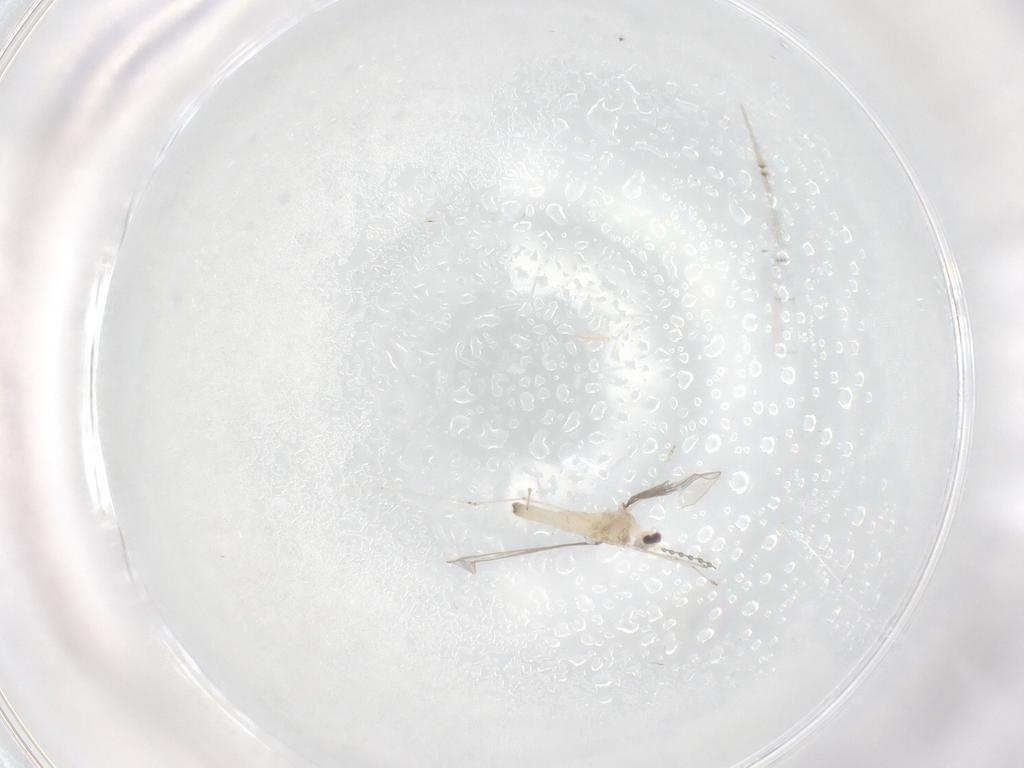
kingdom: Animalia
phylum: Arthropoda
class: Insecta
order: Diptera
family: Cecidomyiidae
